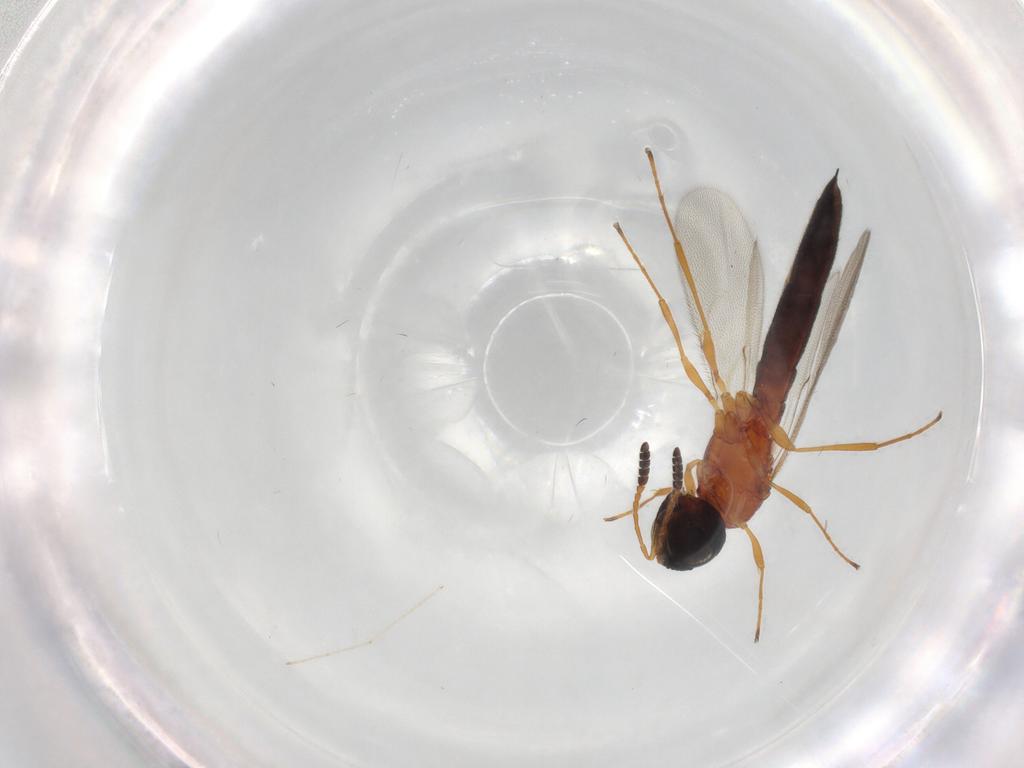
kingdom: Animalia
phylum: Arthropoda
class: Insecta
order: Hymenoptera
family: Scelionidae
